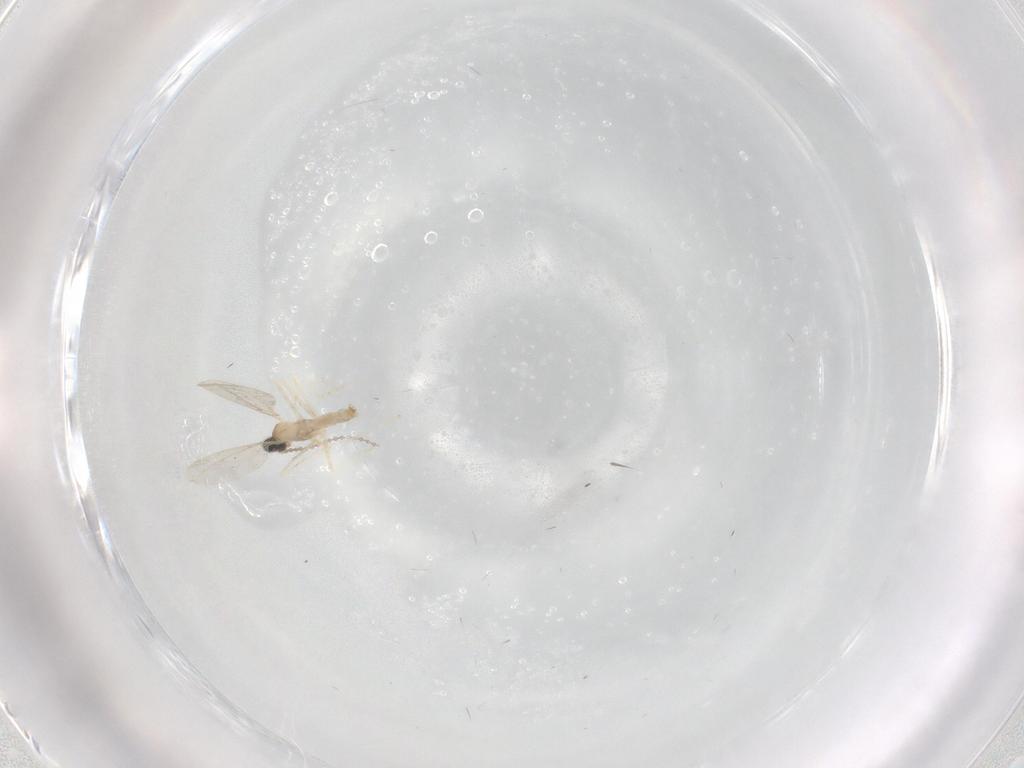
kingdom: Animalia
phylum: Arthropoda
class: Insecta
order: Diptera
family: Cecidomyiidae
